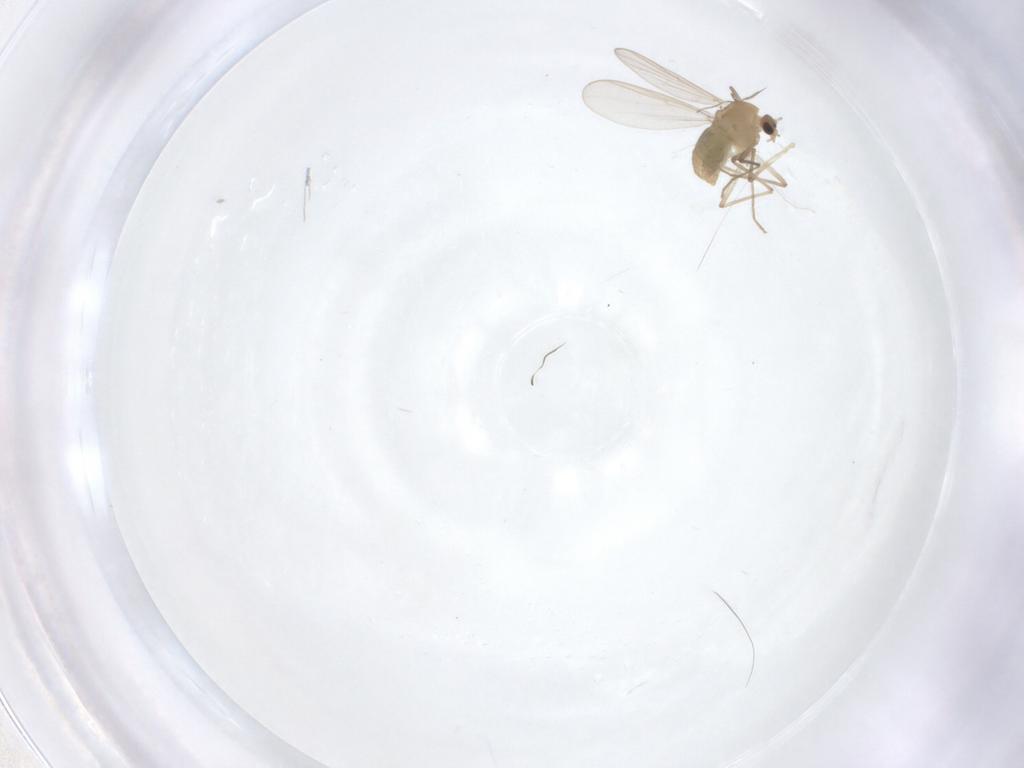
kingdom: Animalia
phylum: Arthropoda
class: Insecta
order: Diptera
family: Chironomidae
